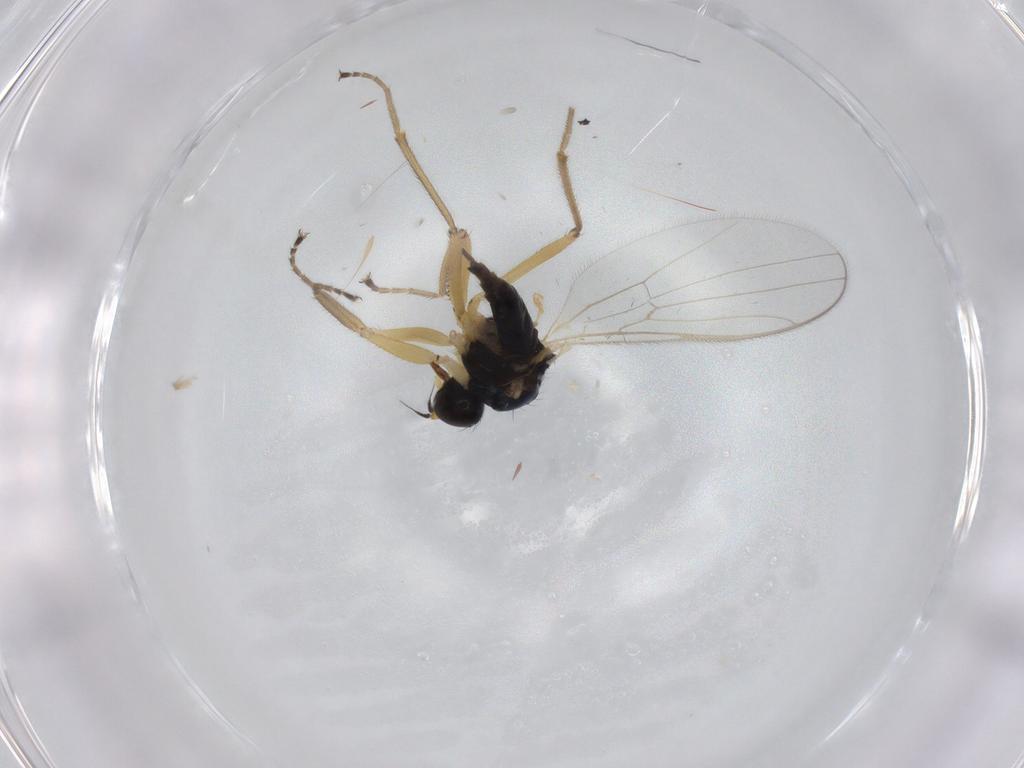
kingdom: Animalia
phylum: Arthropoda
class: Insecta
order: Diptera
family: Hybotidae
